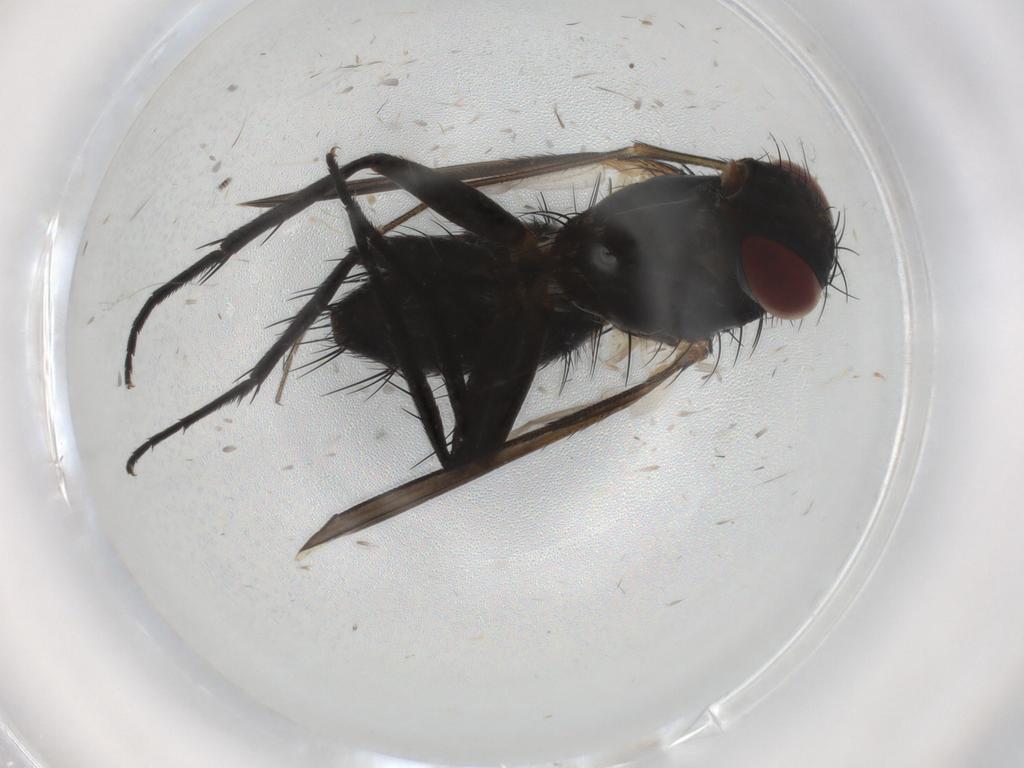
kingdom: Animalia
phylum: Arthropoda
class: Insecta
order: Diptera
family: Tachinidae
